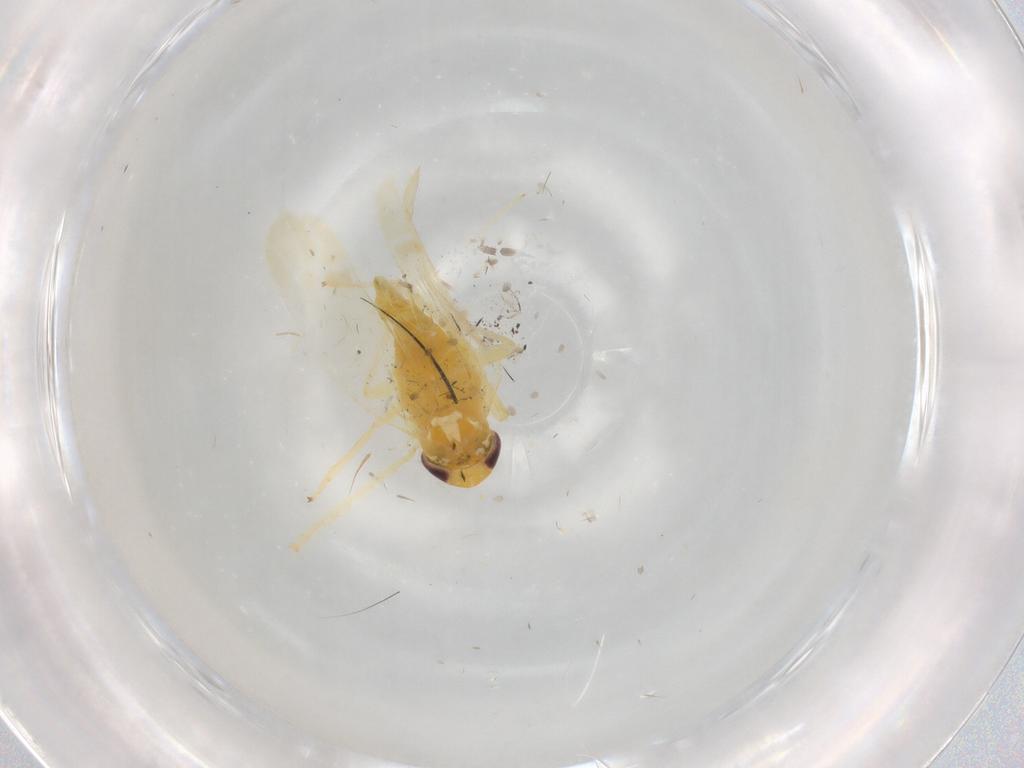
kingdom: Animalia
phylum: Arthropoda
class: Insecta
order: Hemiptera
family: Cicadellidae
